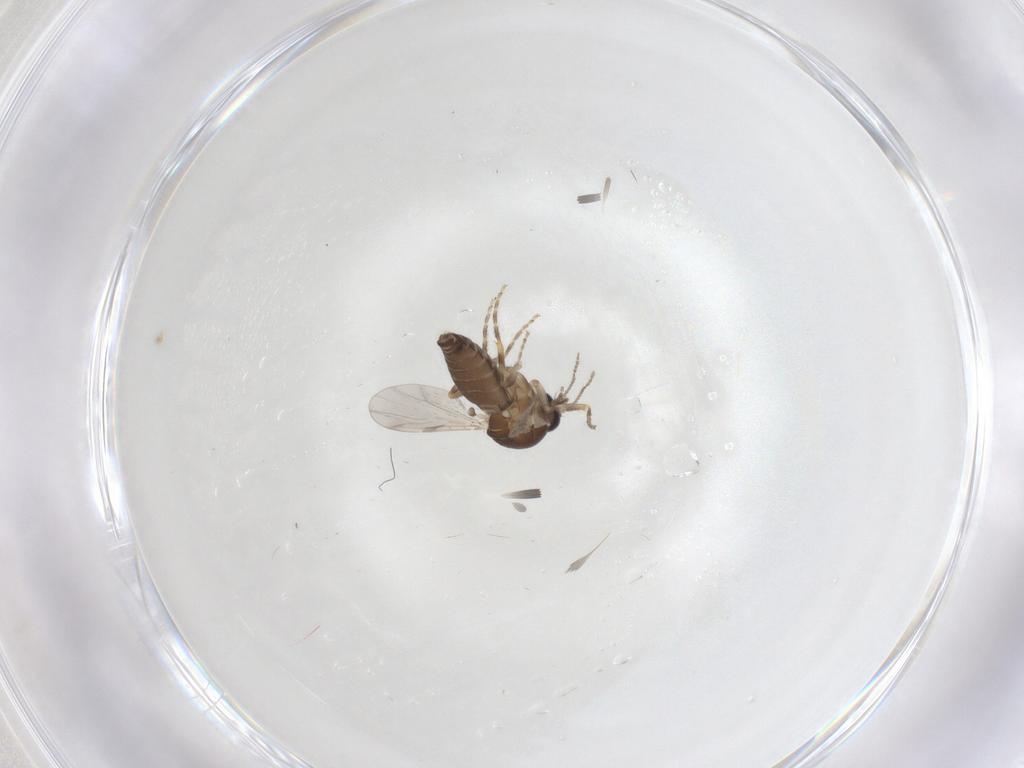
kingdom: Animalia
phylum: Arthropoda
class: Insecta
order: Diptera
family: Ceratopogonidae
